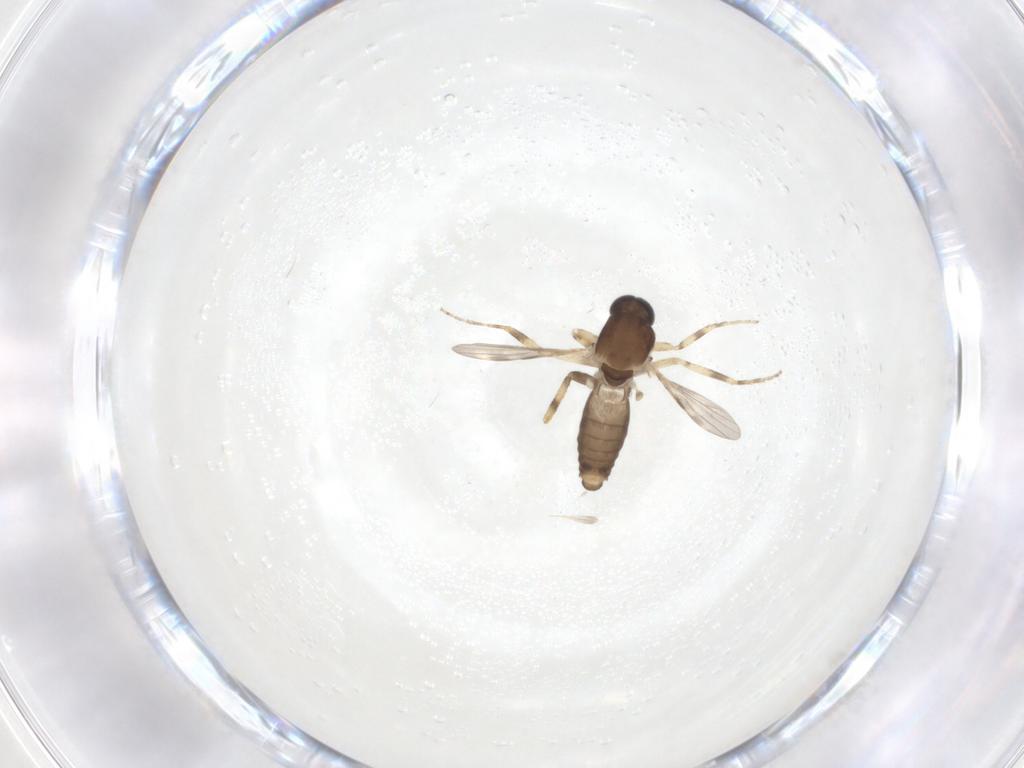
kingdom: Animalia
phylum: Arthropoda
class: Insecta
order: Diptera
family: Ceratopogonidae
